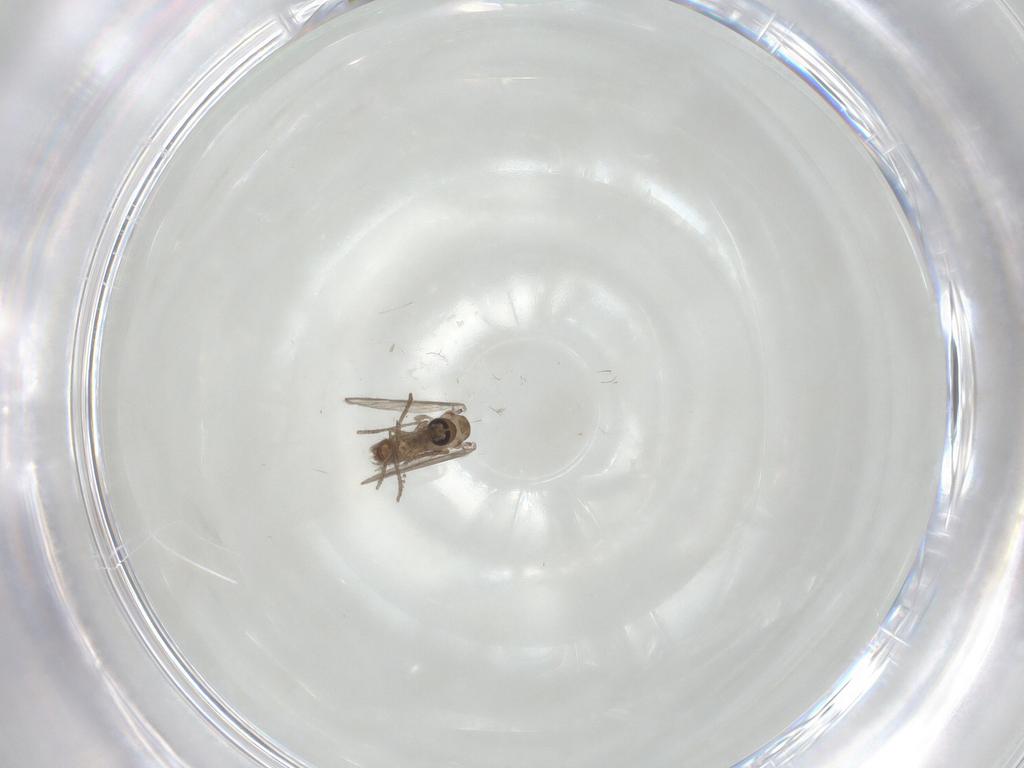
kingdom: Animalia
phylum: Arthropoda
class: Insecta
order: Diptera
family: Psychodidae
